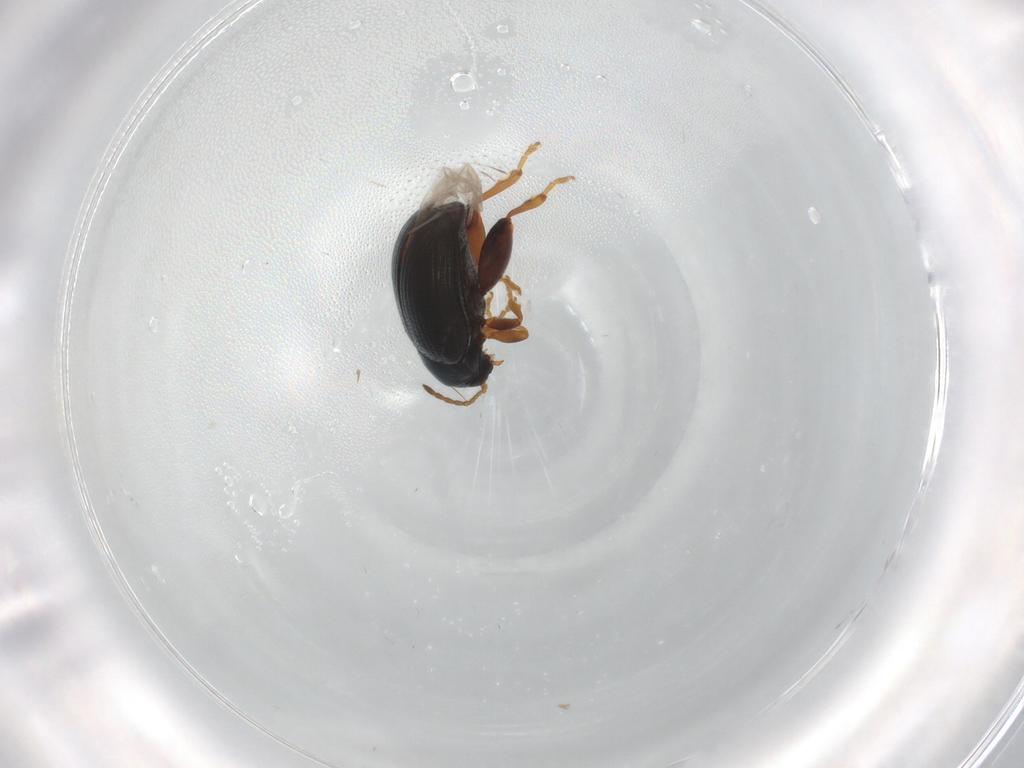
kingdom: Animalia
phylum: Arthropoda
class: Insecta
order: Coleoptera
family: Chrysomelidae
